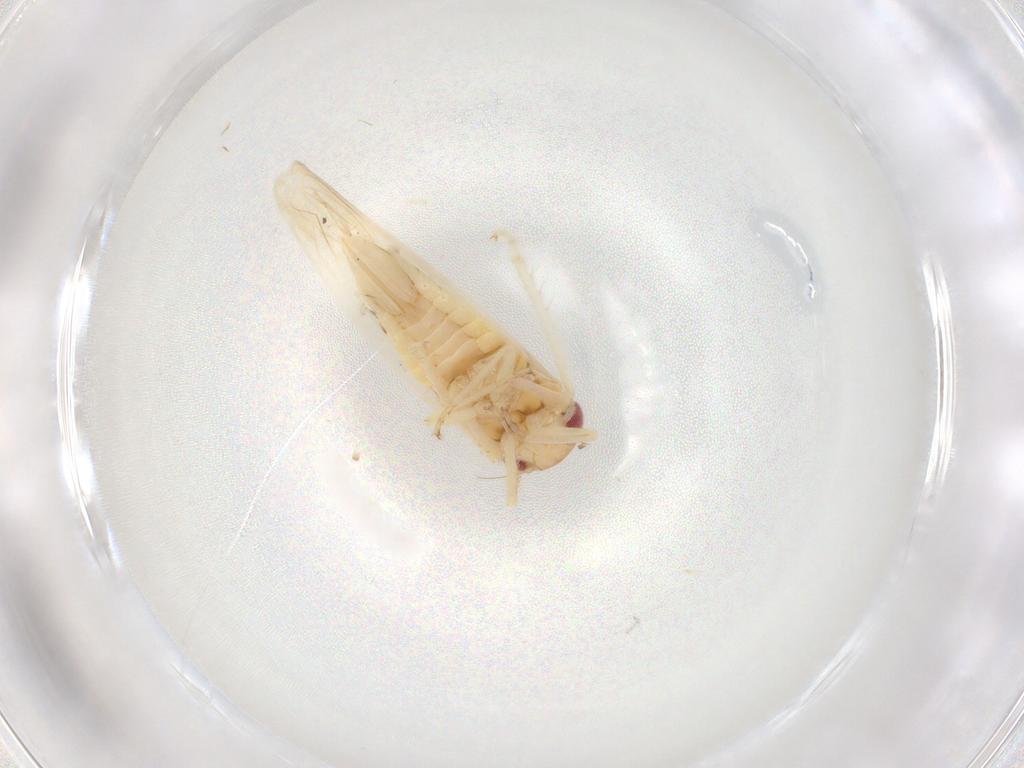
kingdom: Animalia
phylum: Arthropoda
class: Insecta
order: Hemiptera
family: Cicadellidae
